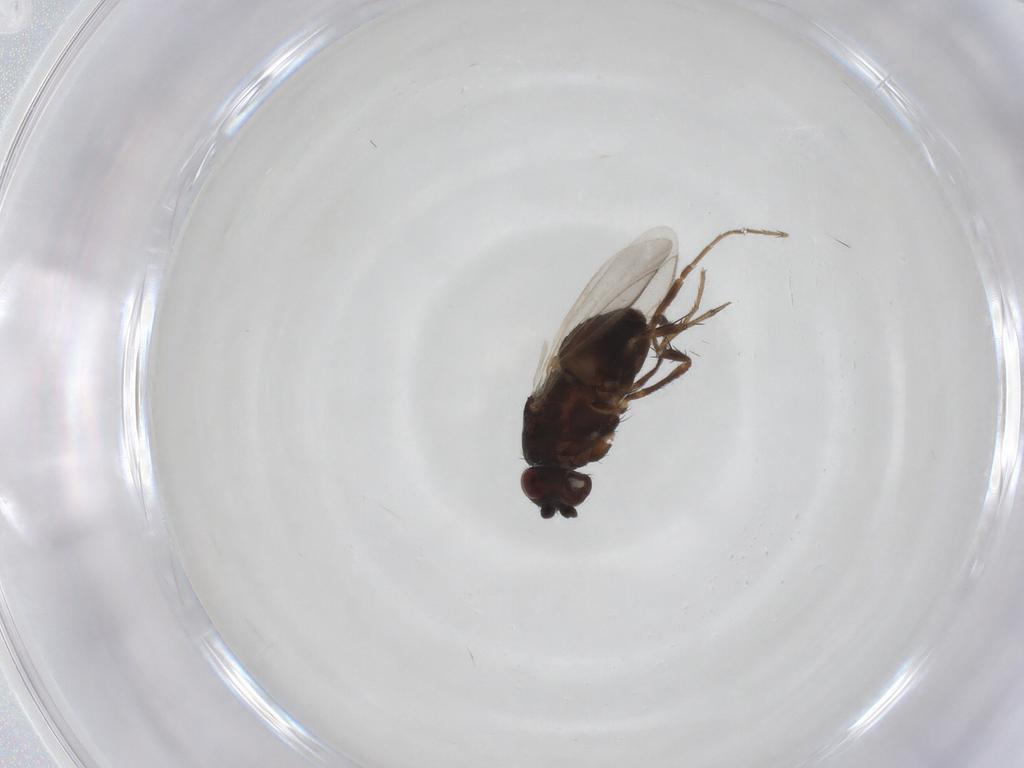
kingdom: Animalia
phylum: Arthropoda
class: Insecta
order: Diptera
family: Sphaeroceridae
